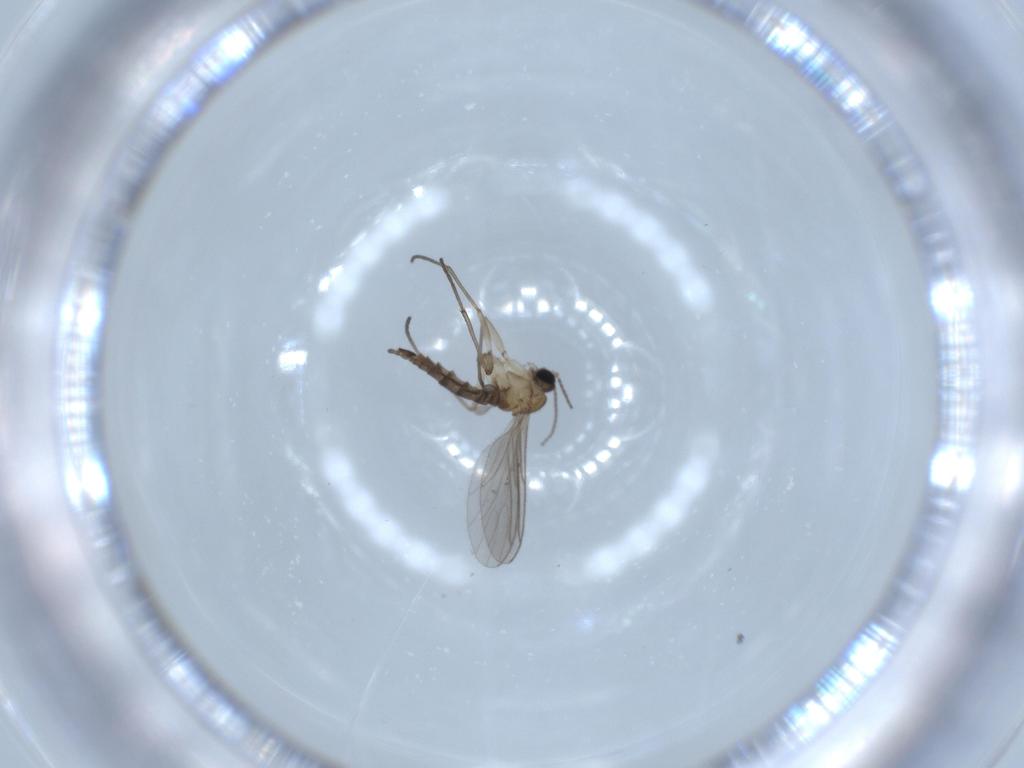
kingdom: Animalia
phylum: Arthropoda
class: Insecta
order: Diptera
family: Sciaridae
